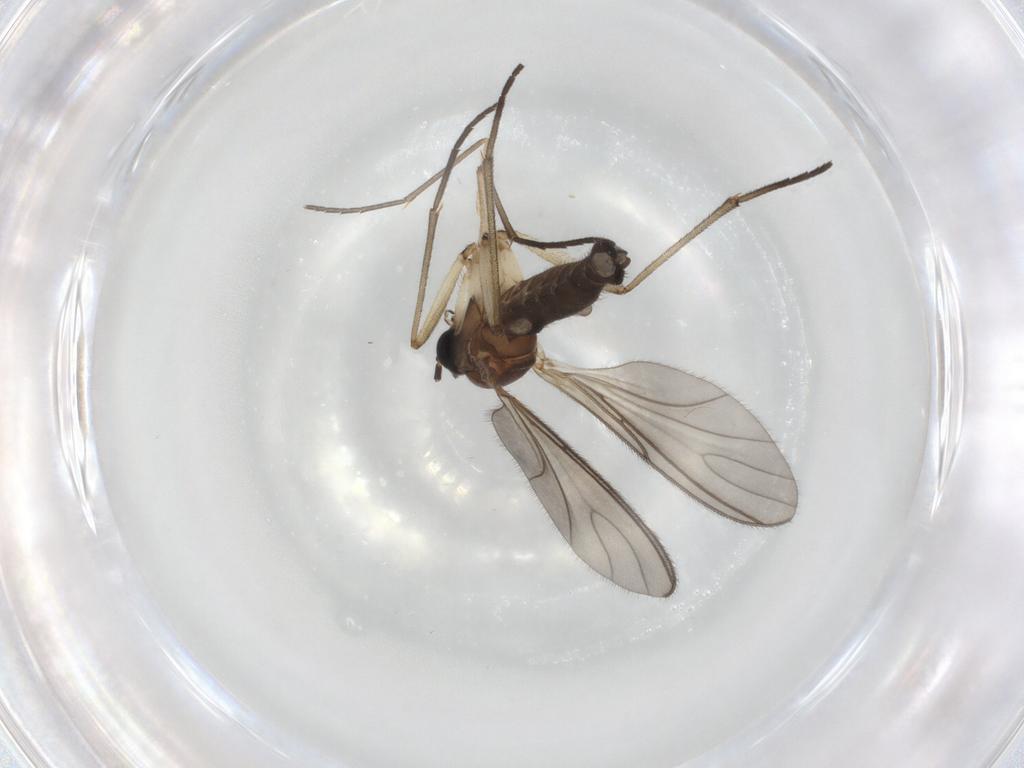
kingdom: Animalia
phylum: Arthropoda
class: Insecta
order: Diptera
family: Sciaridae
